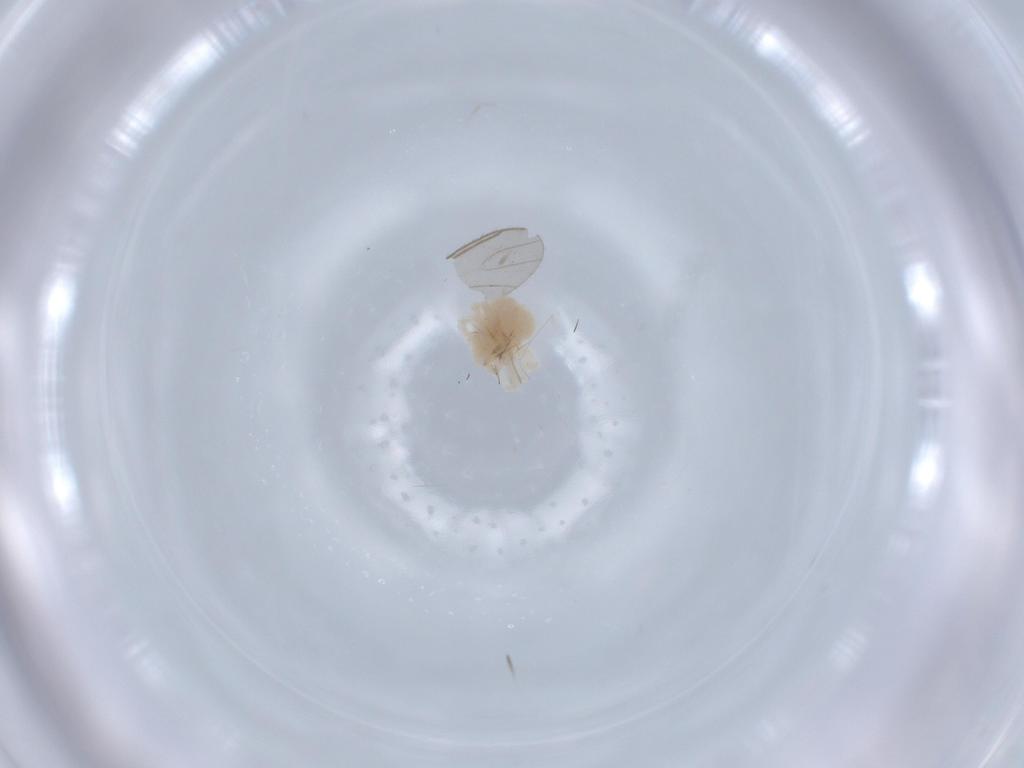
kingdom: Animalia
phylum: Arthropoda
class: Arachnida
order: Trombidiformes
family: Anystidae
